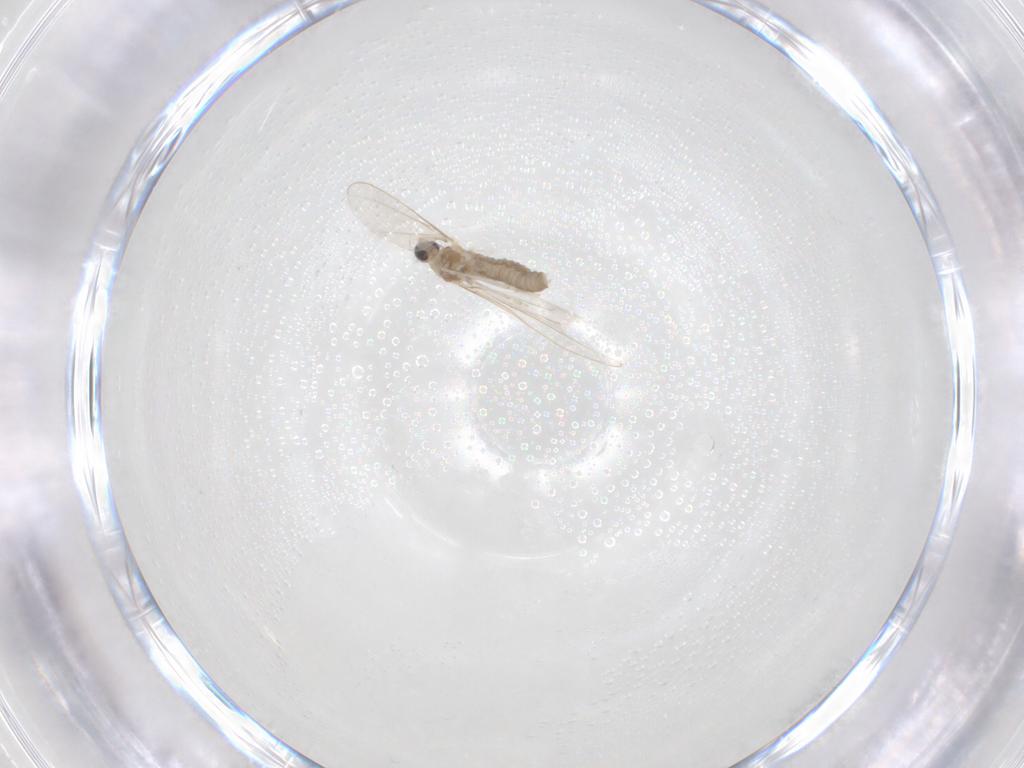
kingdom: Animalia
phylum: Arthropoda
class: Insecta
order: Diptera
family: Cecidomyiidae
